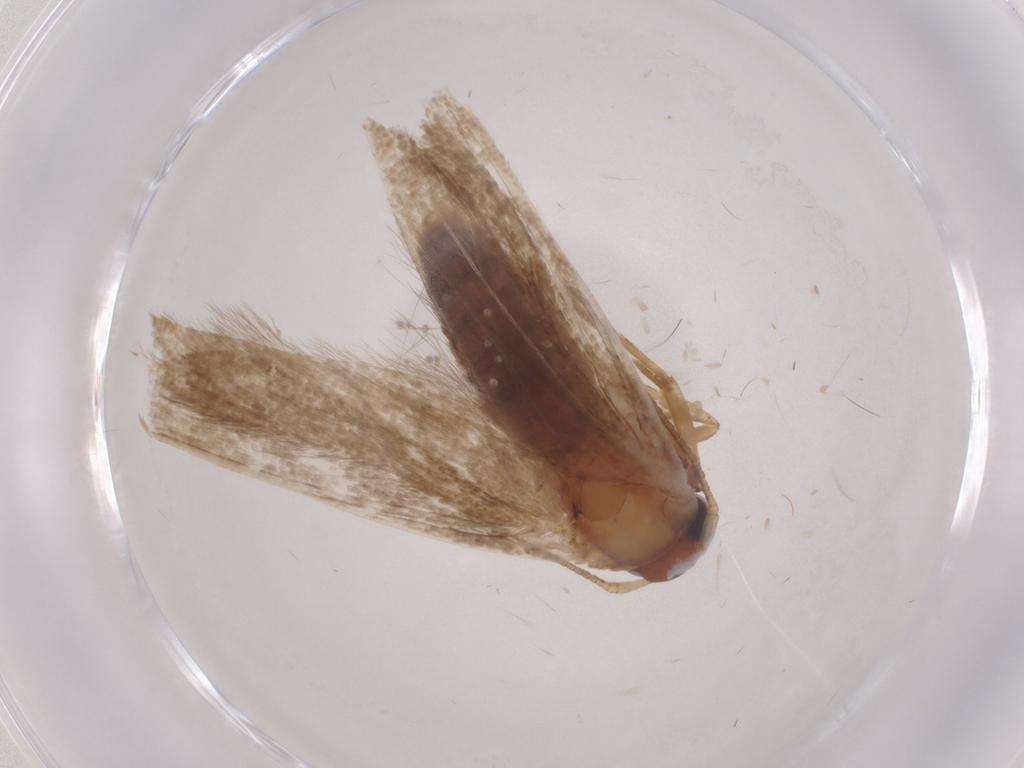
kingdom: Animalia
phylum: Arthropoda
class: Insecta
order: Lepidoptera
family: Notodontidae
